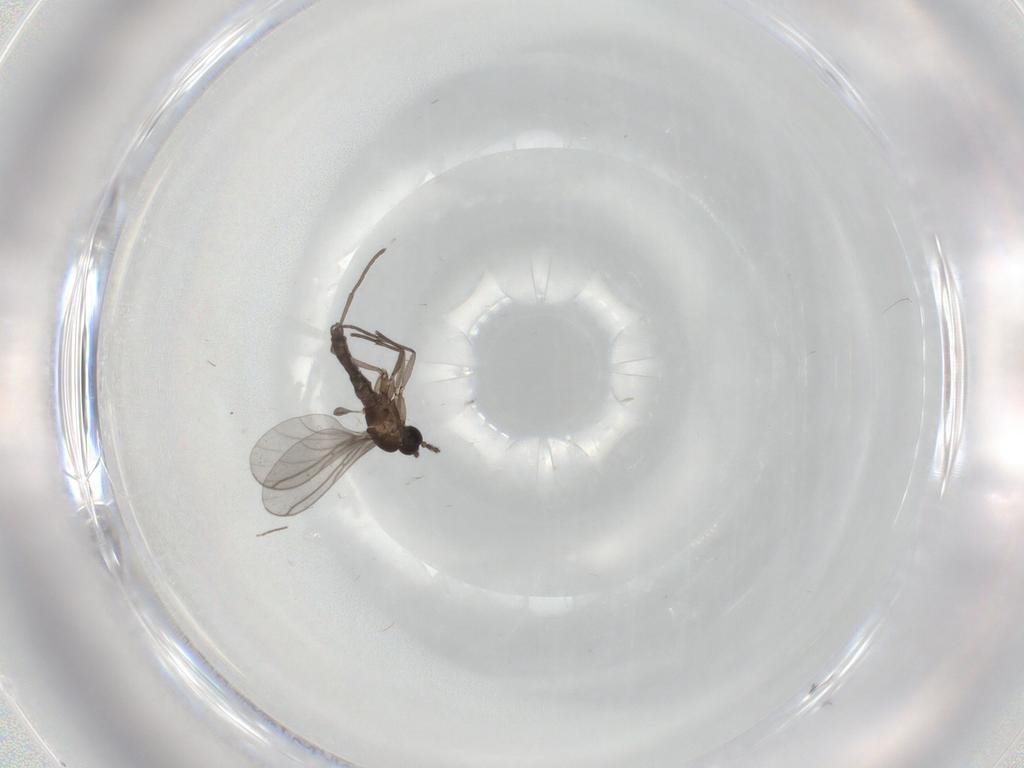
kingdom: Animalia
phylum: Arthropoda
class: Insecta
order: Diptera
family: Chironomidae
